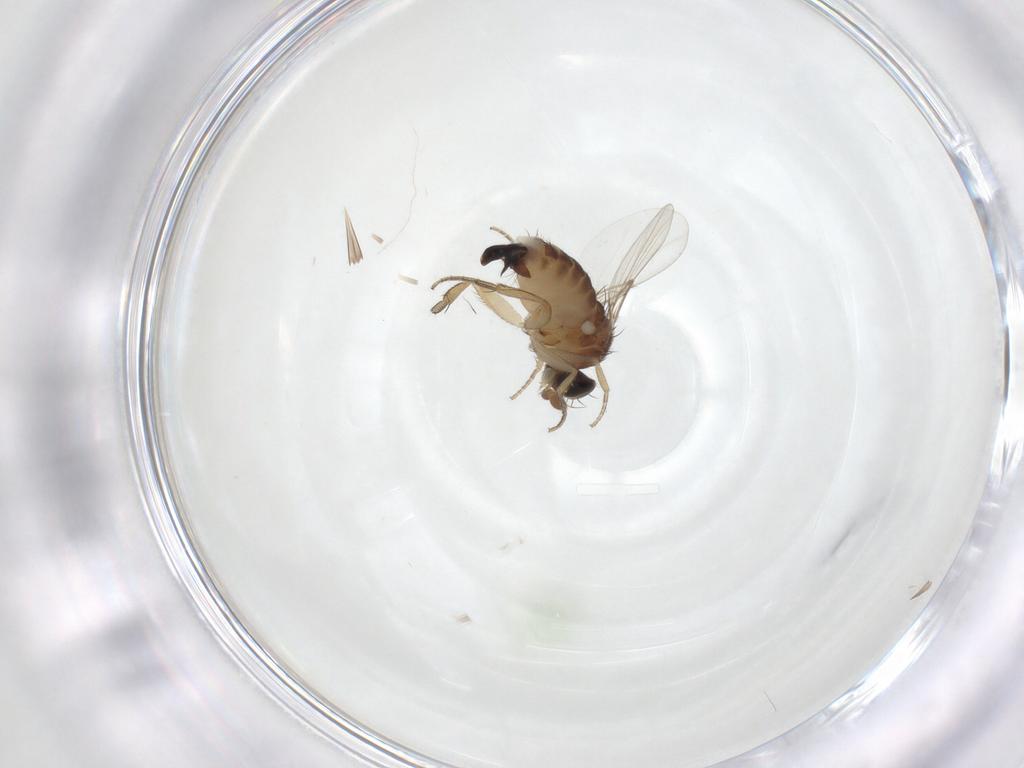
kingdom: Animalia
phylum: Arthropoda
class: Insecta
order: Diptera
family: Phoridae
